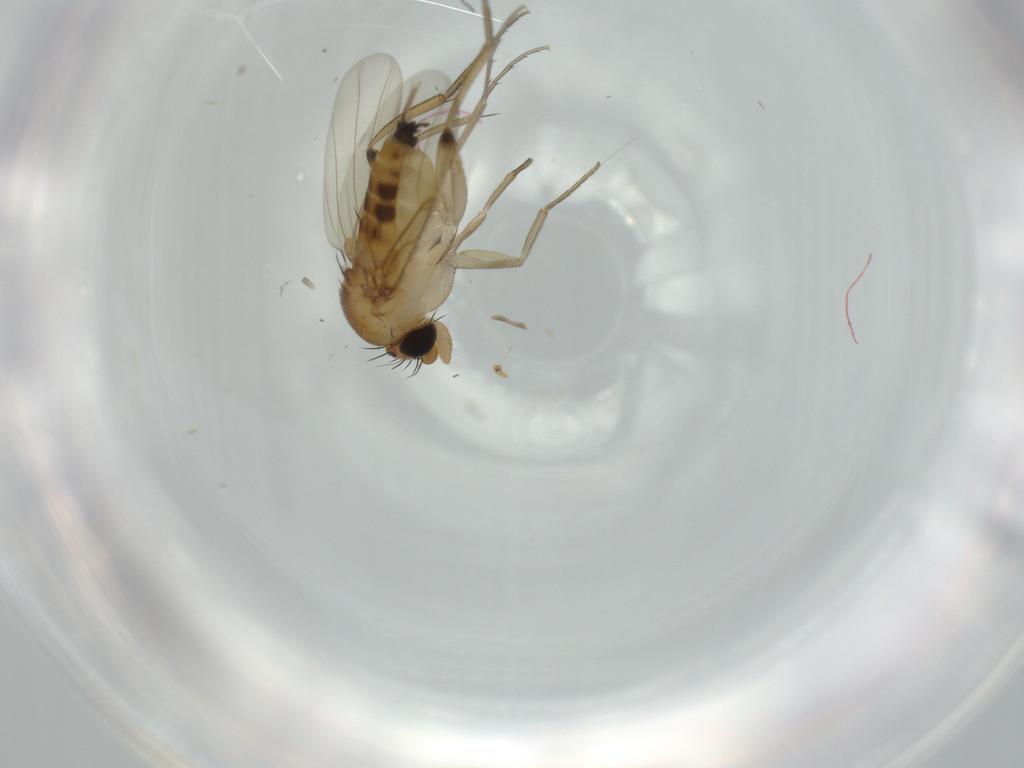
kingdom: Animalia
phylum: Arthropoda
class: Insecta
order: Diptera
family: Phoridae
